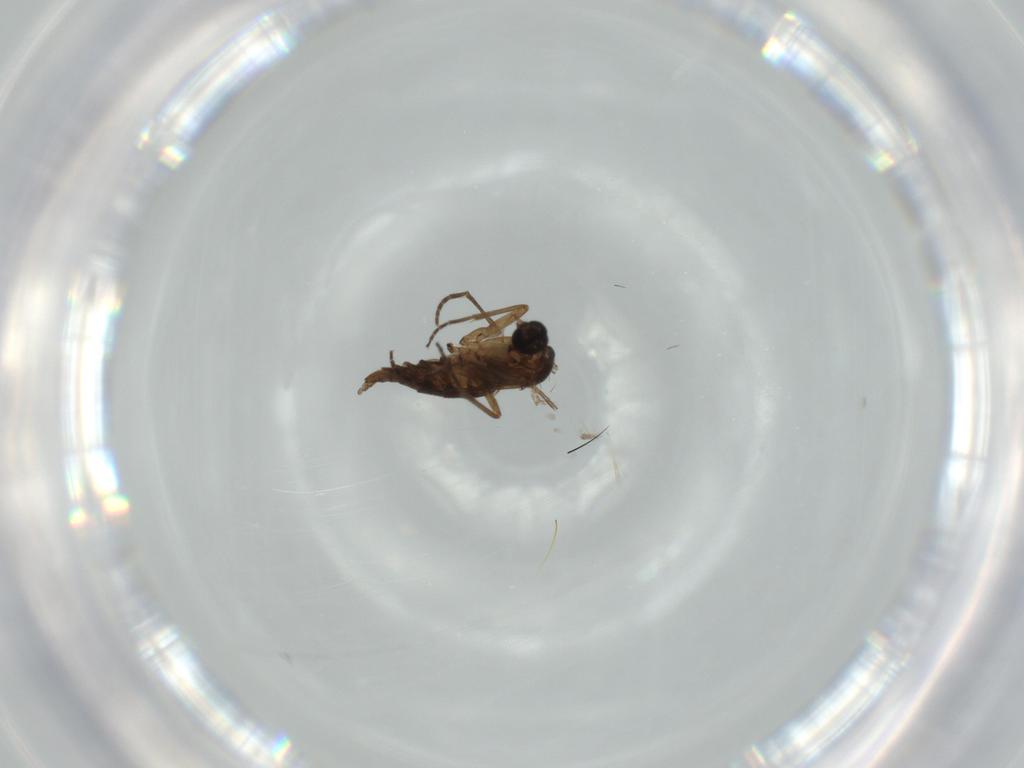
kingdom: Animalia
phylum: Arthropoda
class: Insecta
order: Diptera
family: Sciaridae
